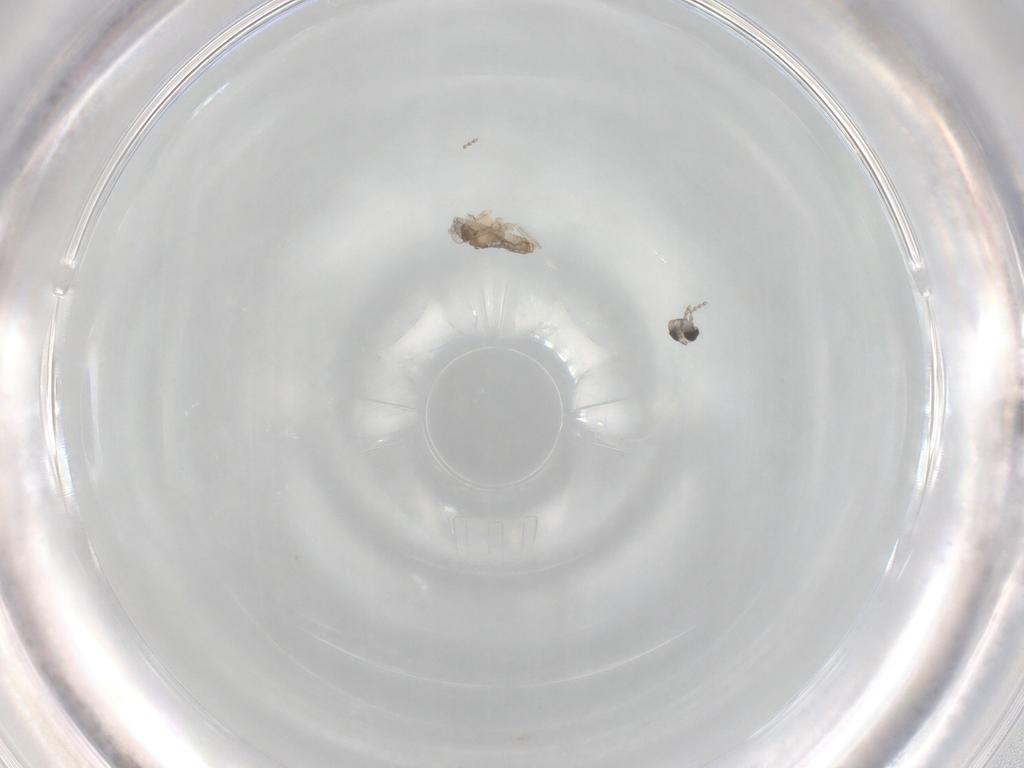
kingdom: Animalia
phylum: Arthropoda
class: Insecta
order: Diptera
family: Cecidomyiidae
